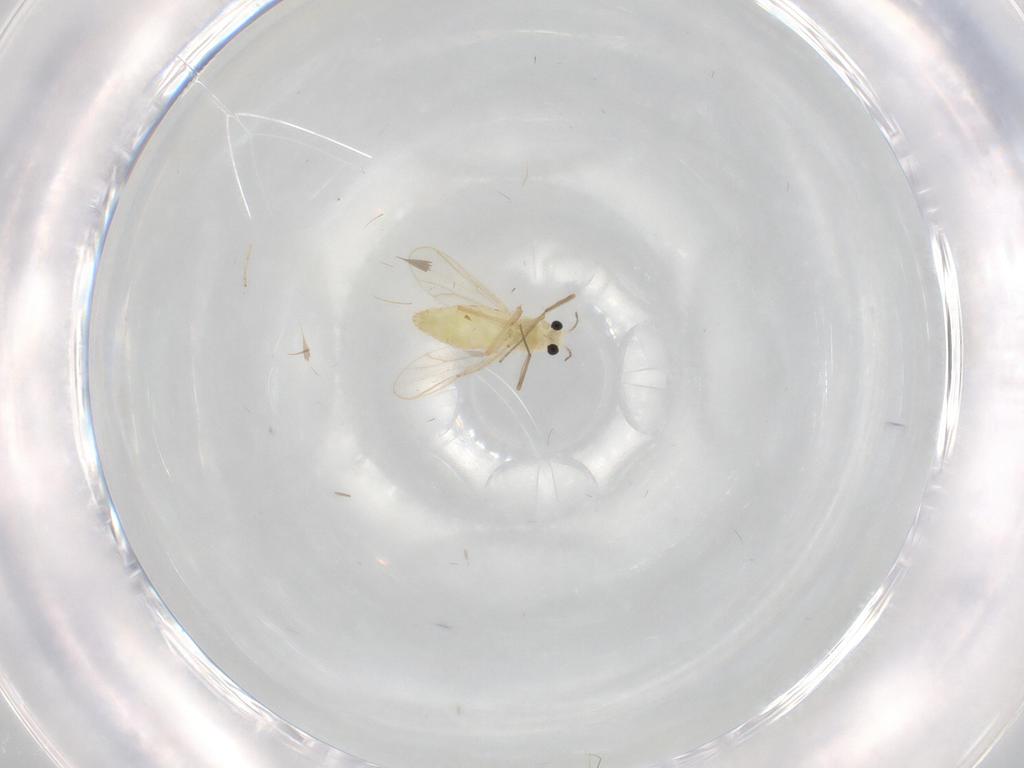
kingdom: Animalia
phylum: Arthropoda
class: Insecta
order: Diptera
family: Chironomidae
